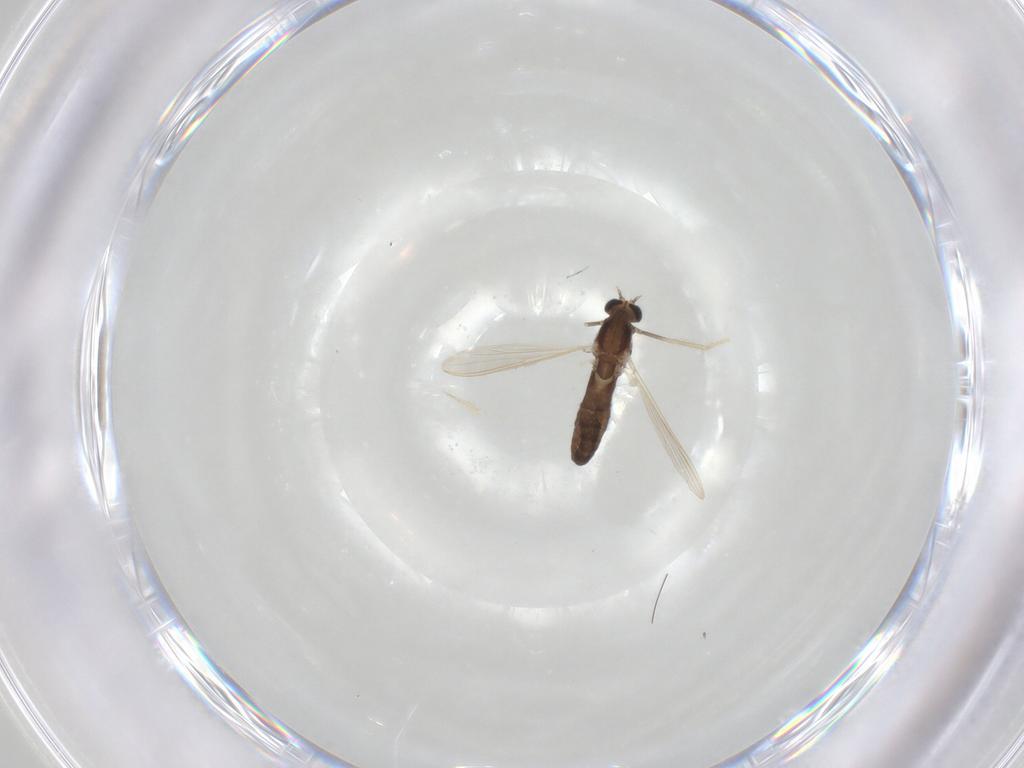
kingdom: Animalia
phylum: Arthropoda
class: Insecta
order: Diptera
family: Chironomidae
